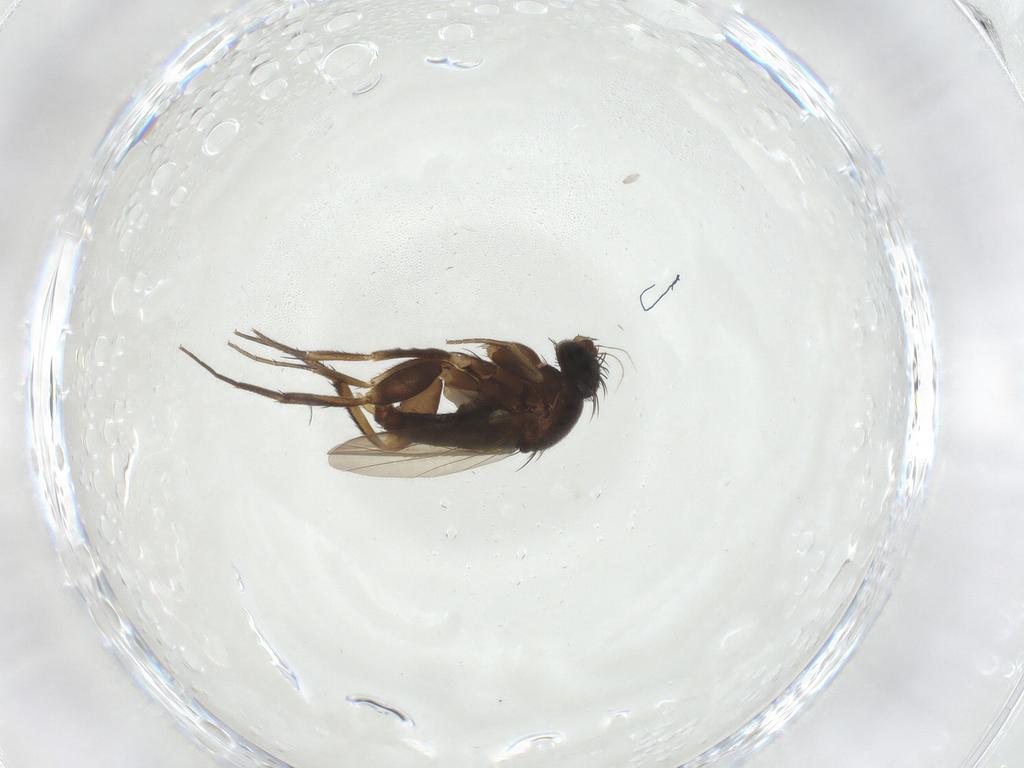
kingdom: Animalia
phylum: Arthropoda
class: Insecta
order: Diptera
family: Phoridae
